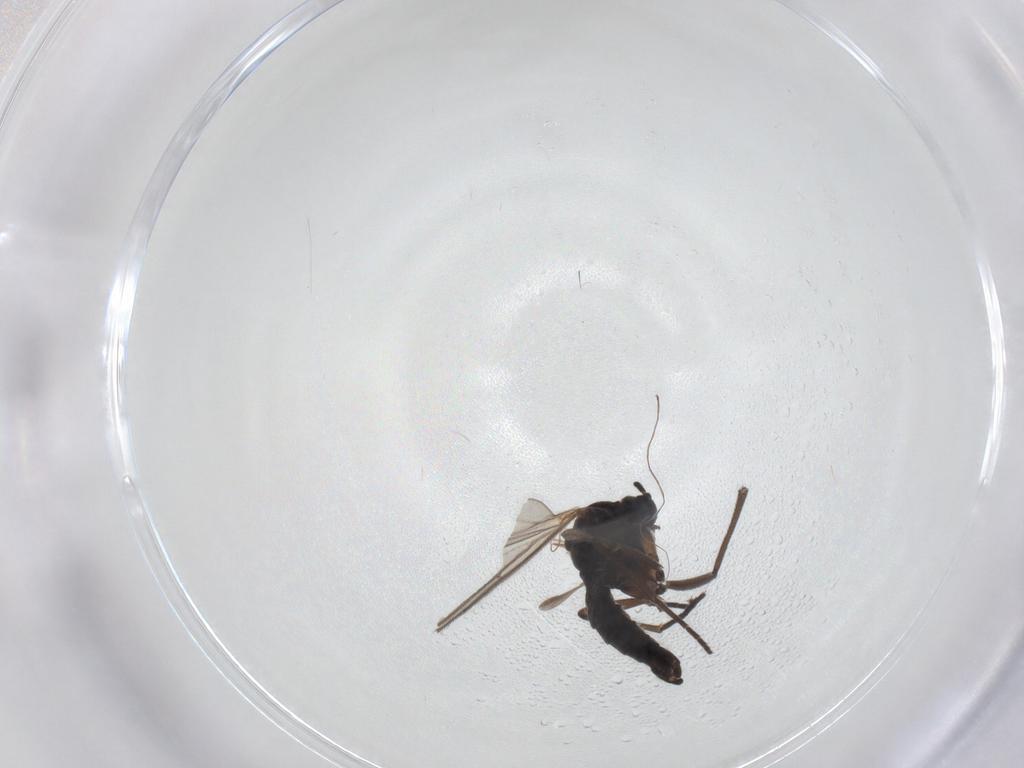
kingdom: Animalia
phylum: Arthropoda
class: Insecta
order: Diptera
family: Sciaridae
